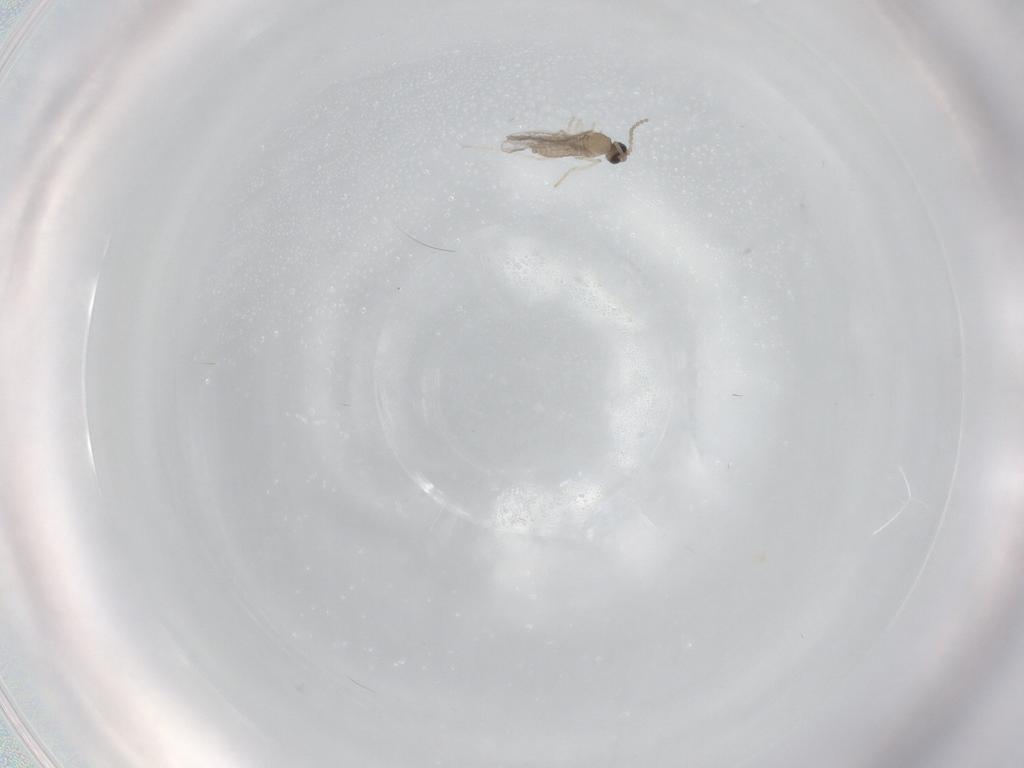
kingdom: Animalia
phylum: Arthropoda
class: Insecta
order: Diptera
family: Cecidomyiidae
